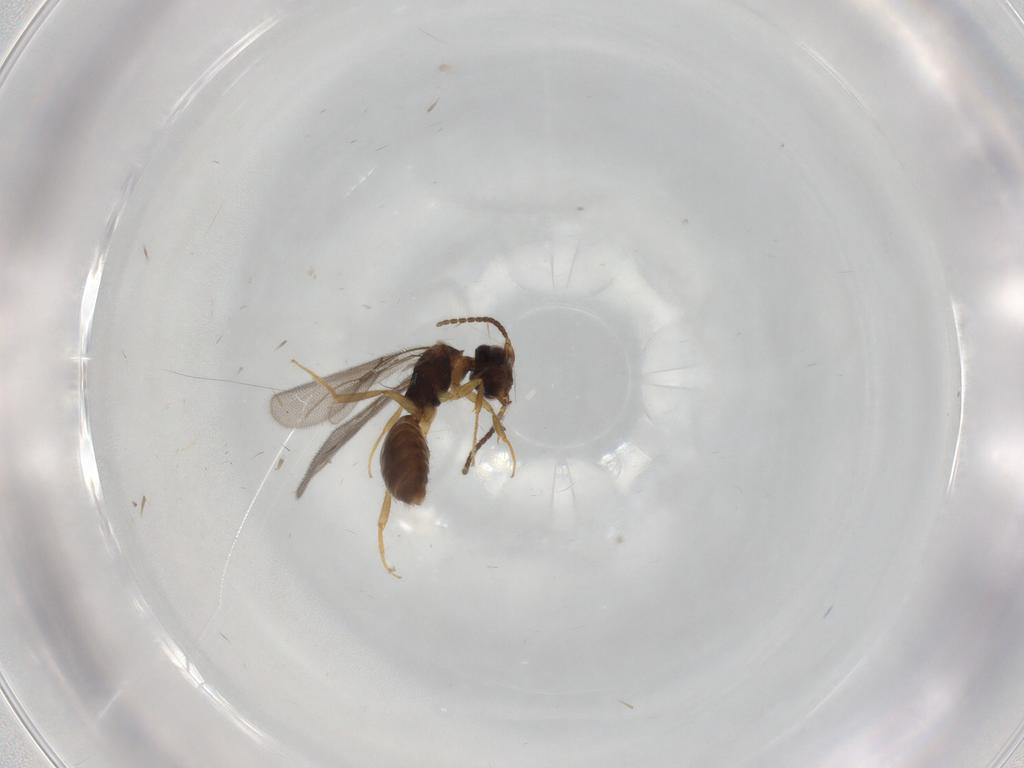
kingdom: Animalia
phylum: Arthropoda
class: Insecta
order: Hymenoptera
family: Bethylidae
